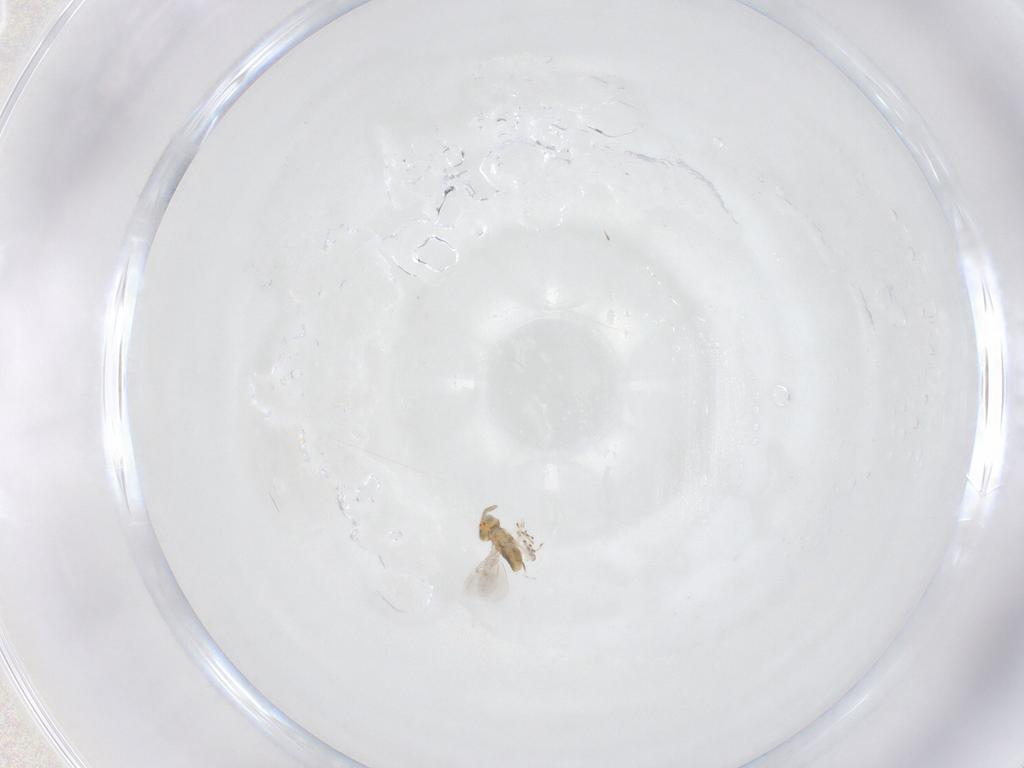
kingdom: Animalia
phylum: Arthropoda
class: Insecta
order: Hymenoptera
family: Aphelinidae
